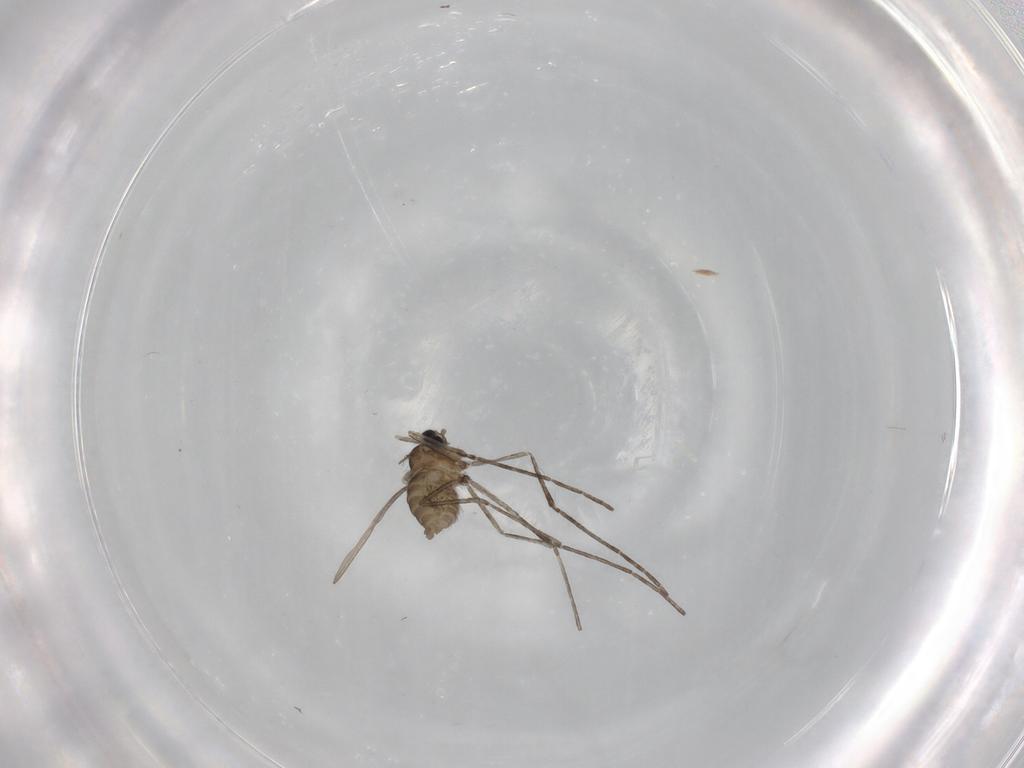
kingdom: Animalia
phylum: Arthropoda
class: Insecta
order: Diptera
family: Cecidomyiidae
